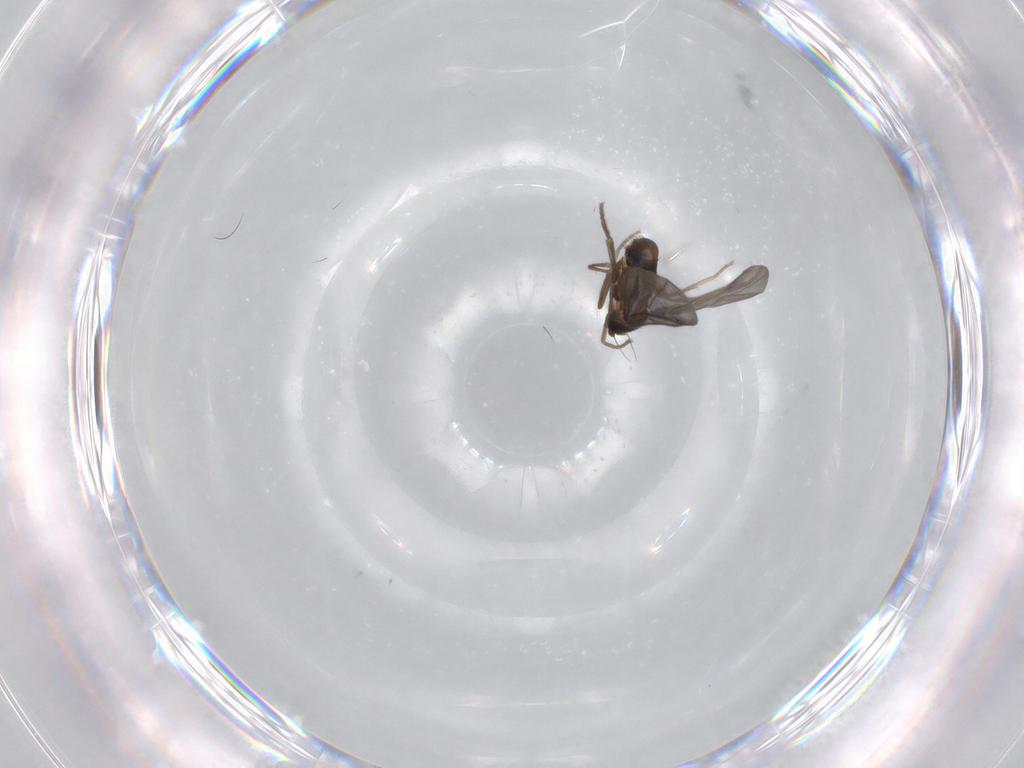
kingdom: Animalia
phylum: Arthropoda
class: Insecta
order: Diptera
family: Phoridae
